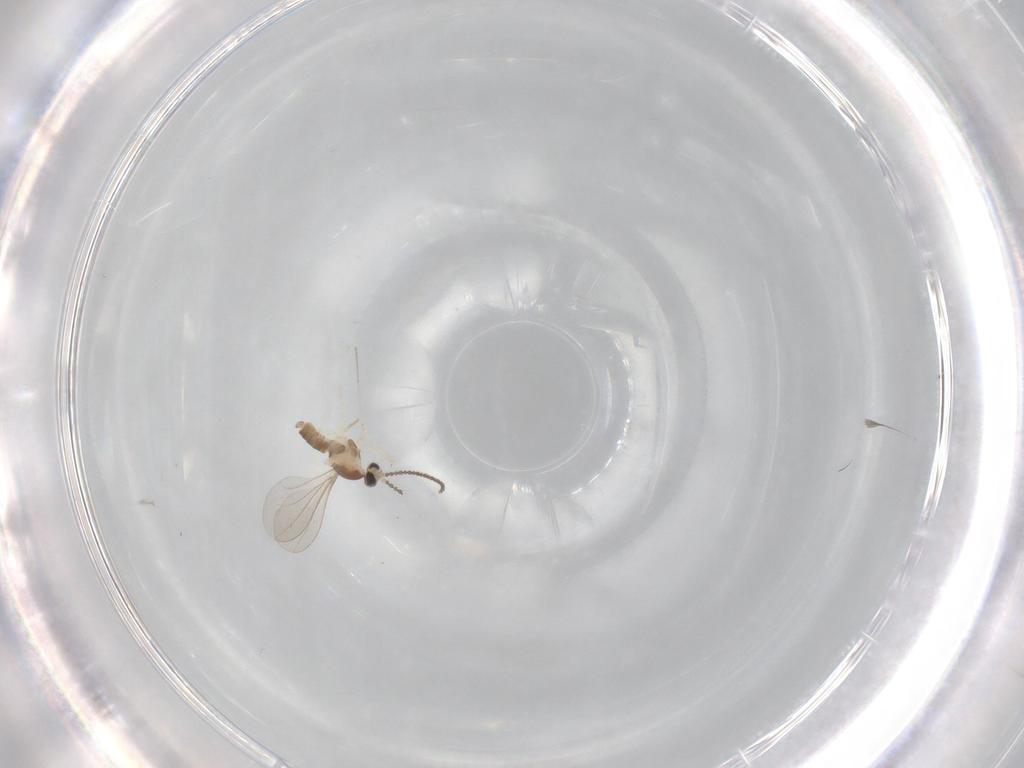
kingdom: Animalia
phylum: Arthropoda
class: Insecta
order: Diptera
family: Cecidomyiidae
